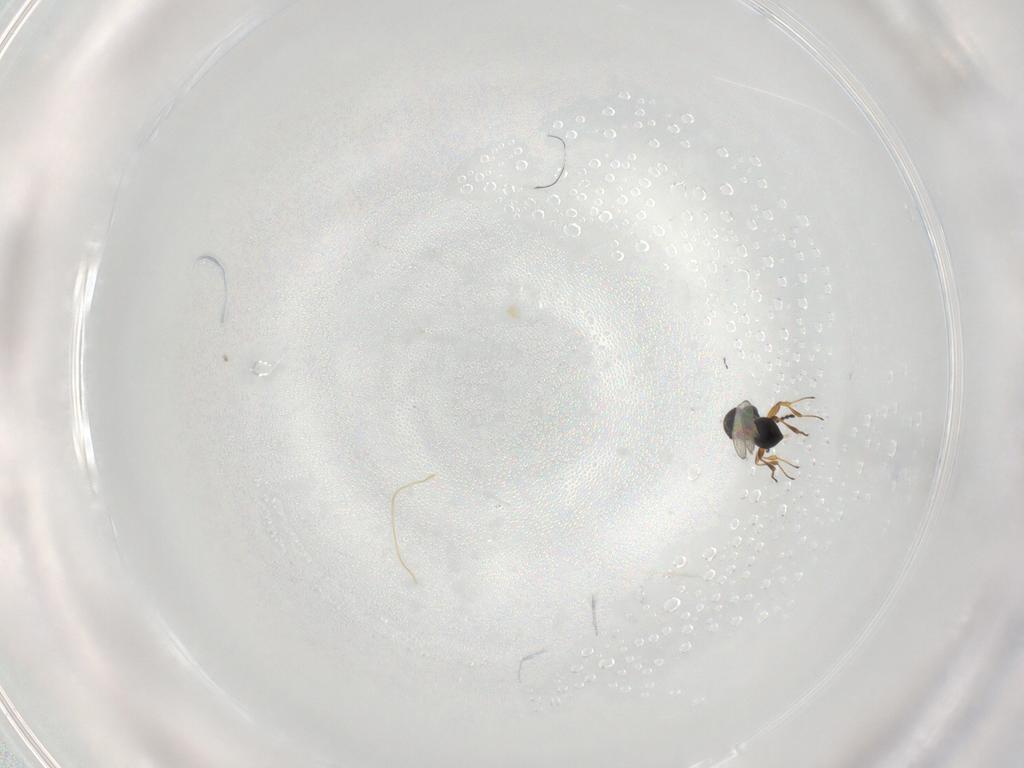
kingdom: Animalia
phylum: Arthropoda
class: Insecta
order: Hymenoptera
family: Platygastridae
